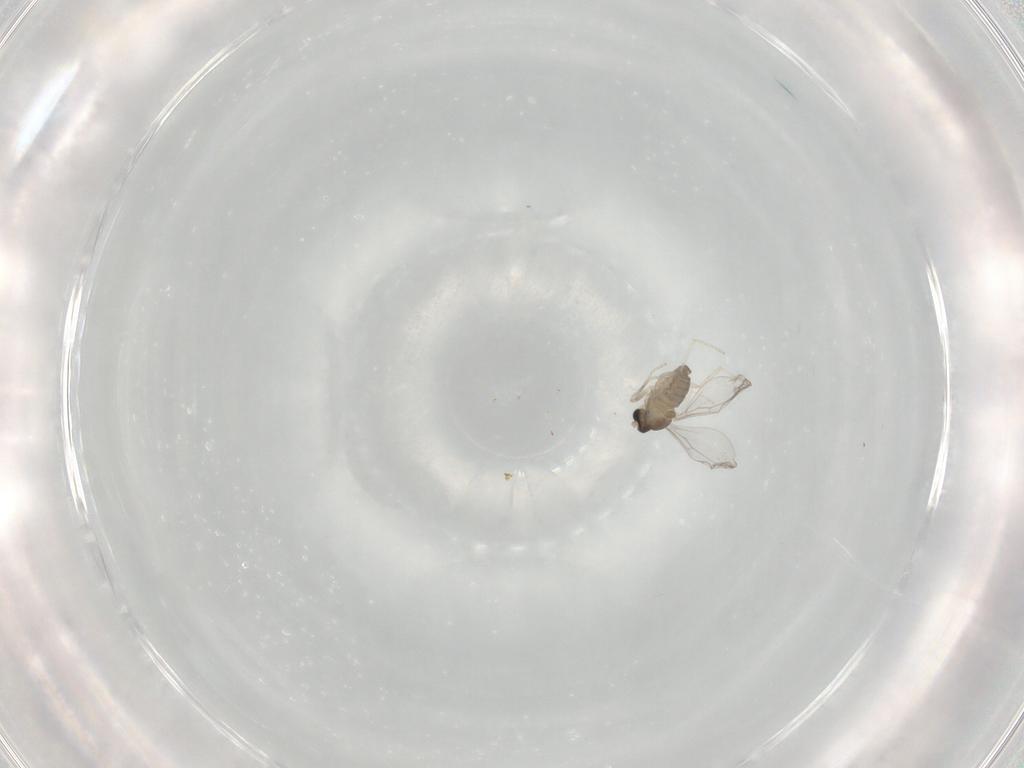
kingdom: Animalia
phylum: Arthropoda
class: Insecta
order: Diptera
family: Cecidomyiidae
